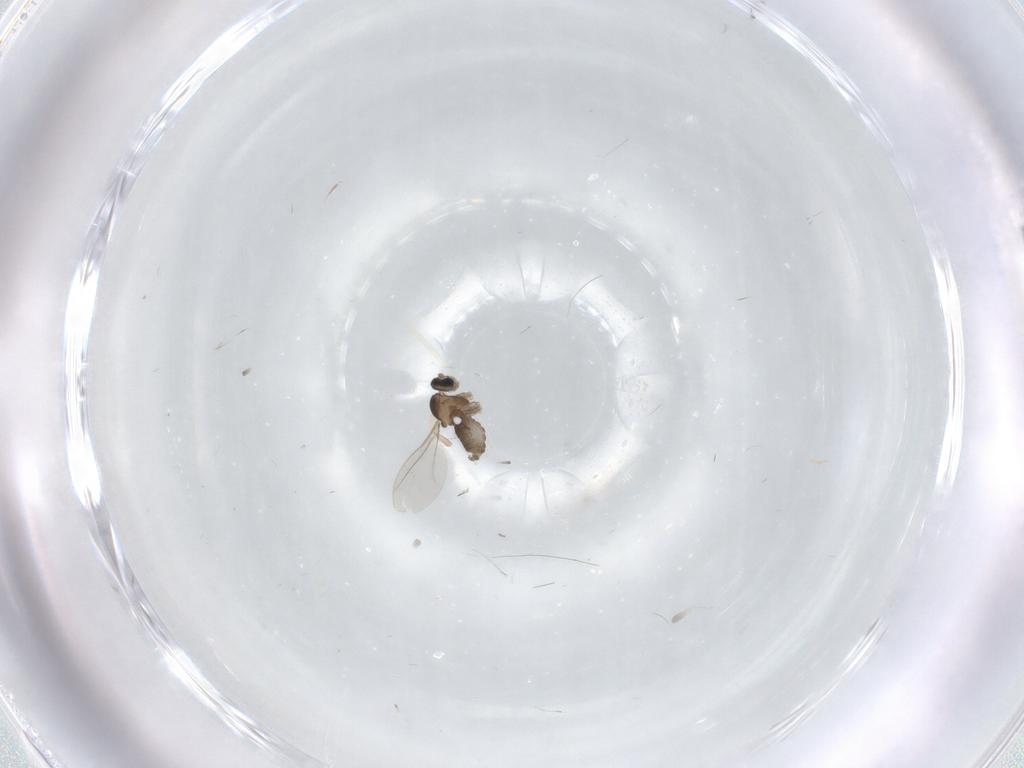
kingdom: Animalia
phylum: Arthropoda
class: Insecta
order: Diptera
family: Cecidomyiidae
